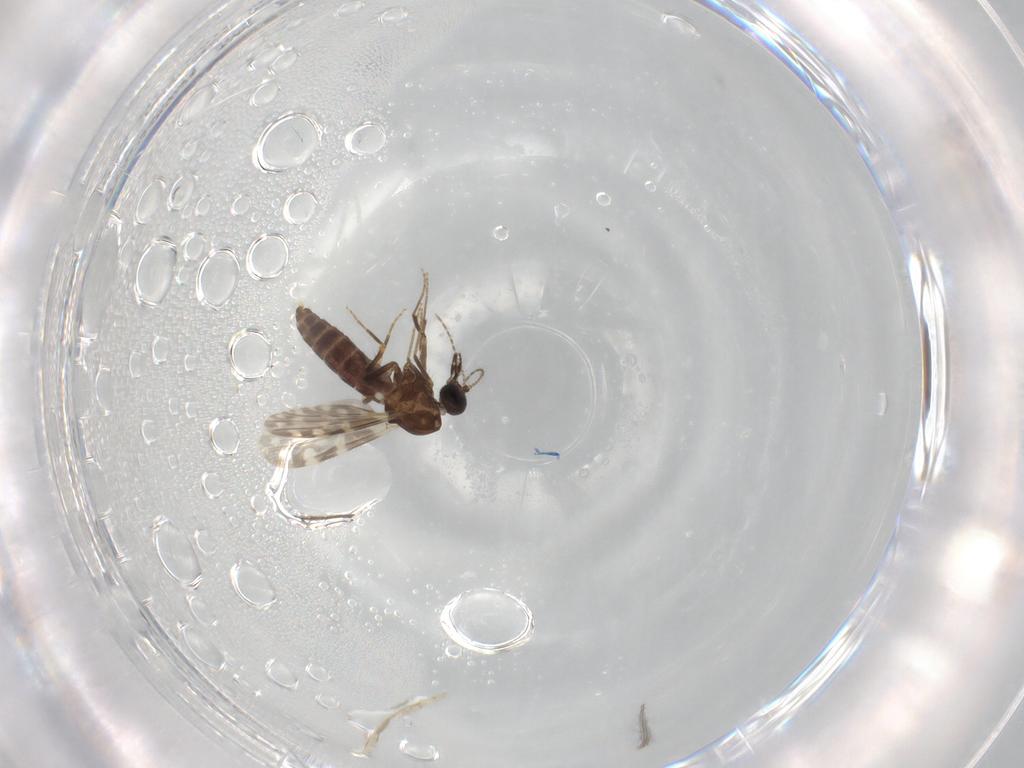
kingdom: Animalia
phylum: Arthropoda
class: Insecta
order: Diptera
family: Ceratopogonidae
